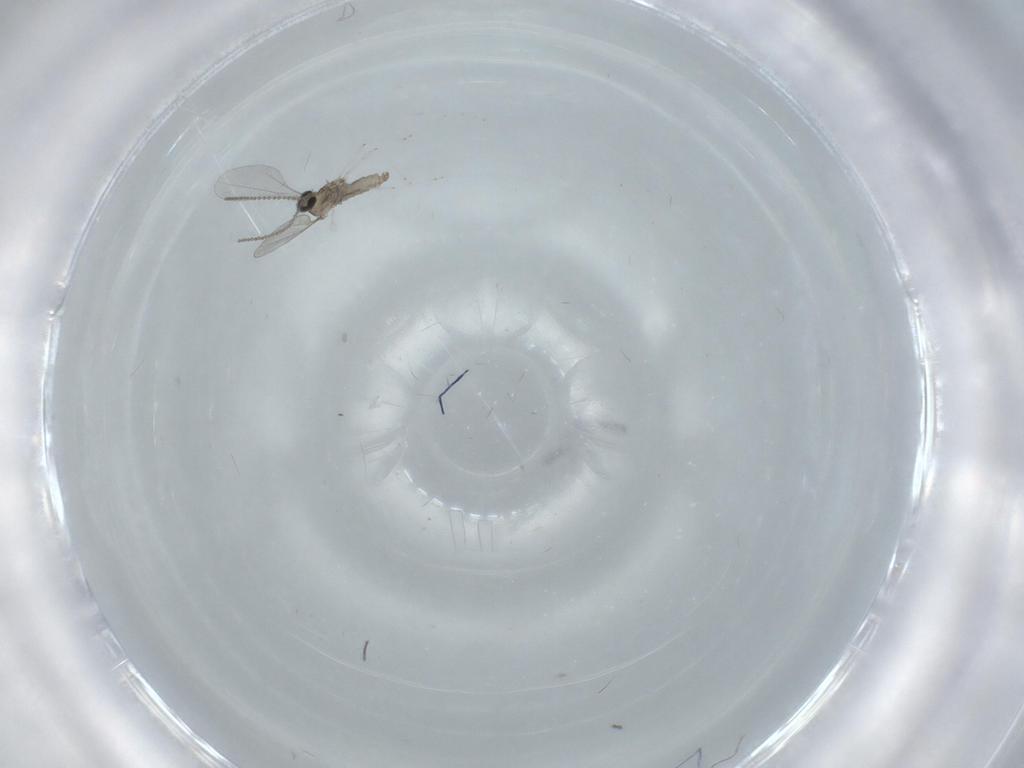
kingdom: Animalia
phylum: Arthropoda
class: Insecta
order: Diptera
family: Cecidomyiidae
